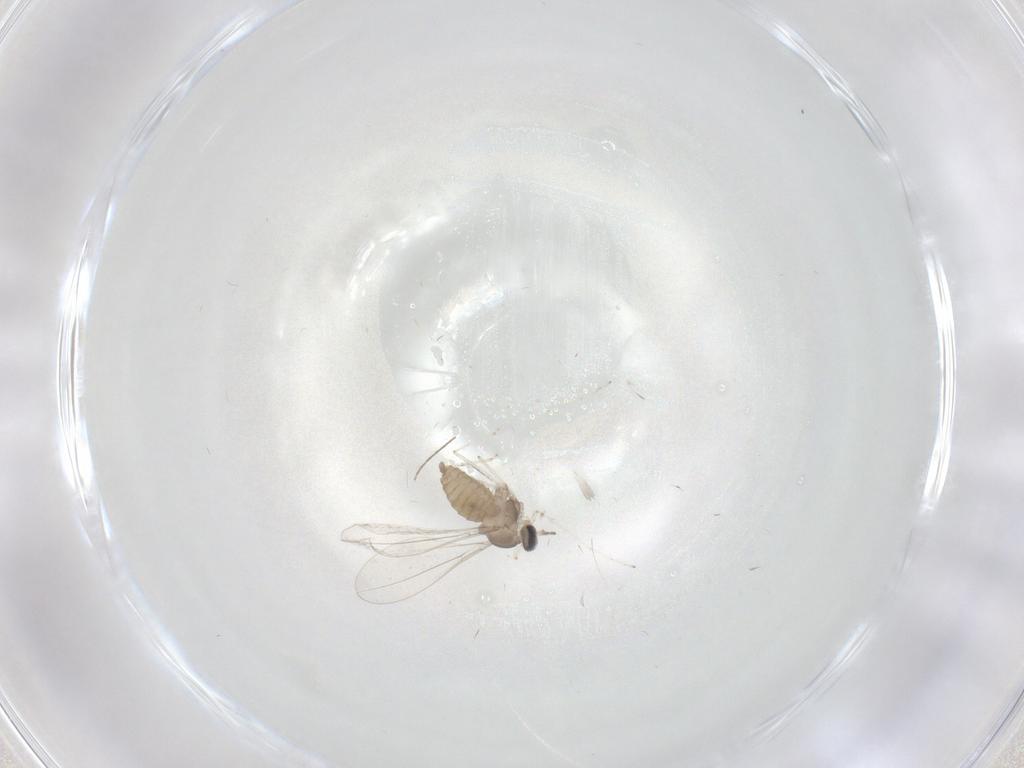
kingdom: Animalia
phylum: Arthropoda
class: Insecta
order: Diptera
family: Chironomidae
